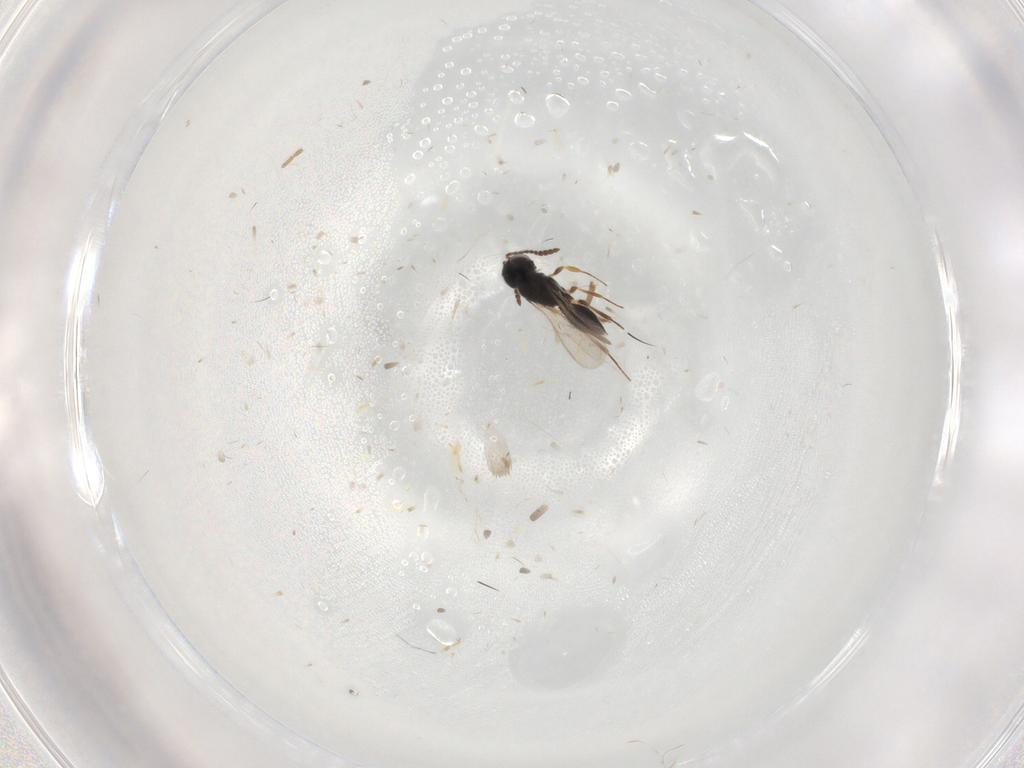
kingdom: Animalia
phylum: Arthropoda
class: Insecta
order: Hymenoptera
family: Scelionidae
